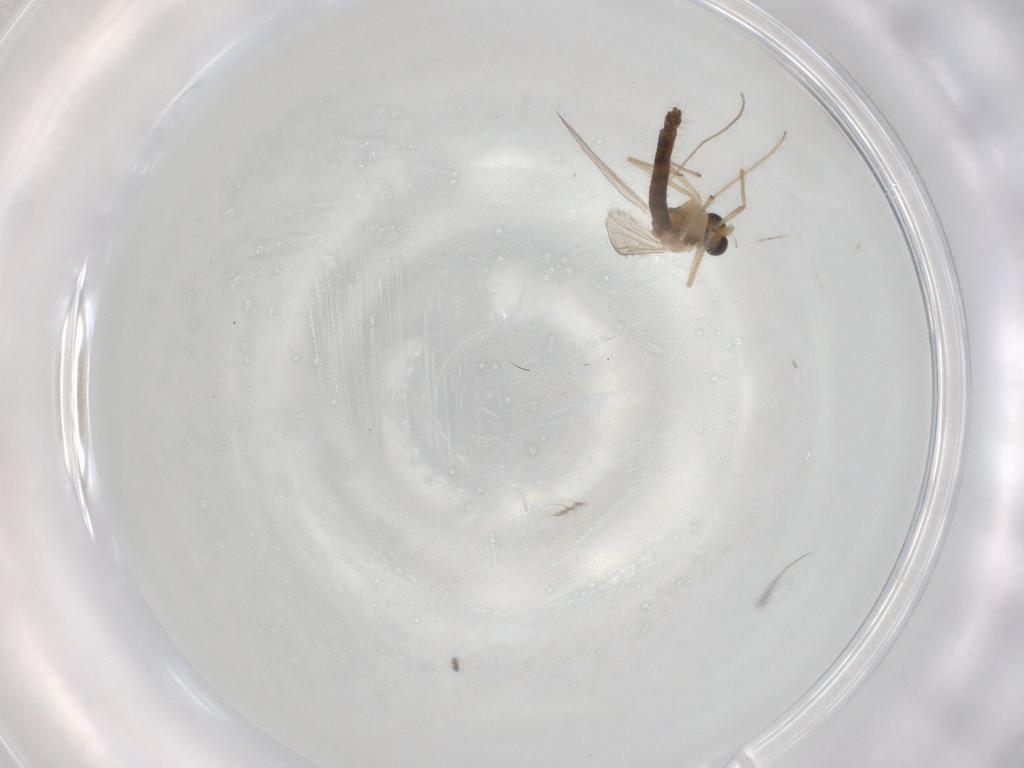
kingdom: Animalia
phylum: Arthropoda
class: Insecta
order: Diptera
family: Chironomidae
